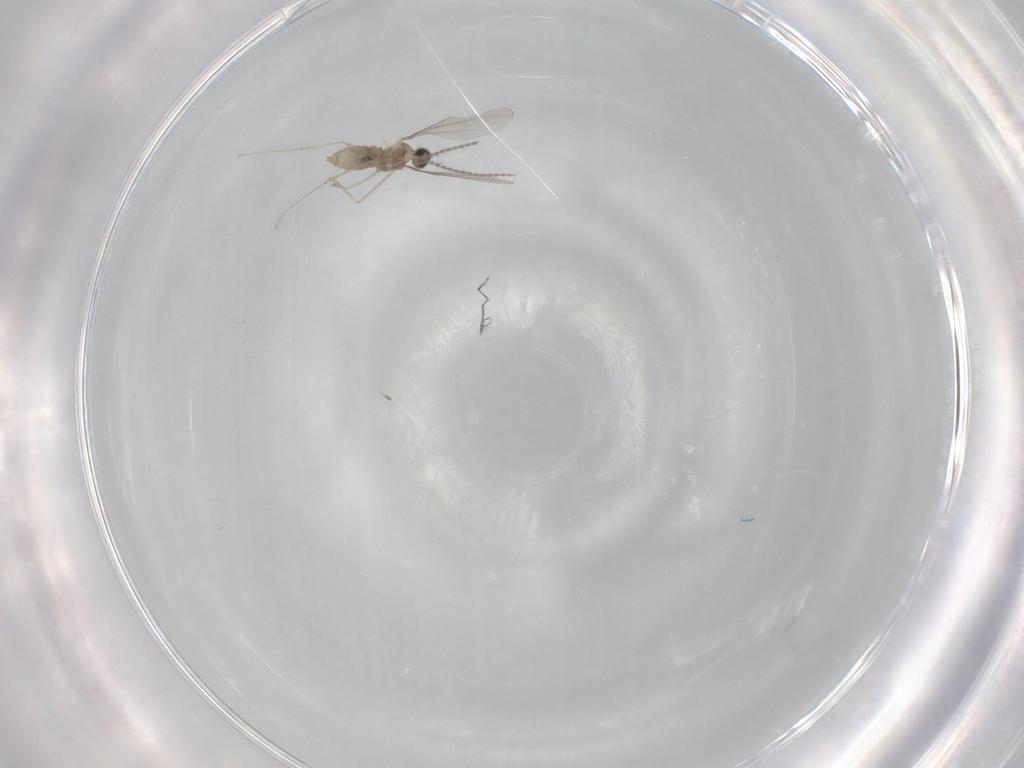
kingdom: Animalia
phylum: Arthropoda
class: Insecta
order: Diptera
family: Cecidomyiidae
